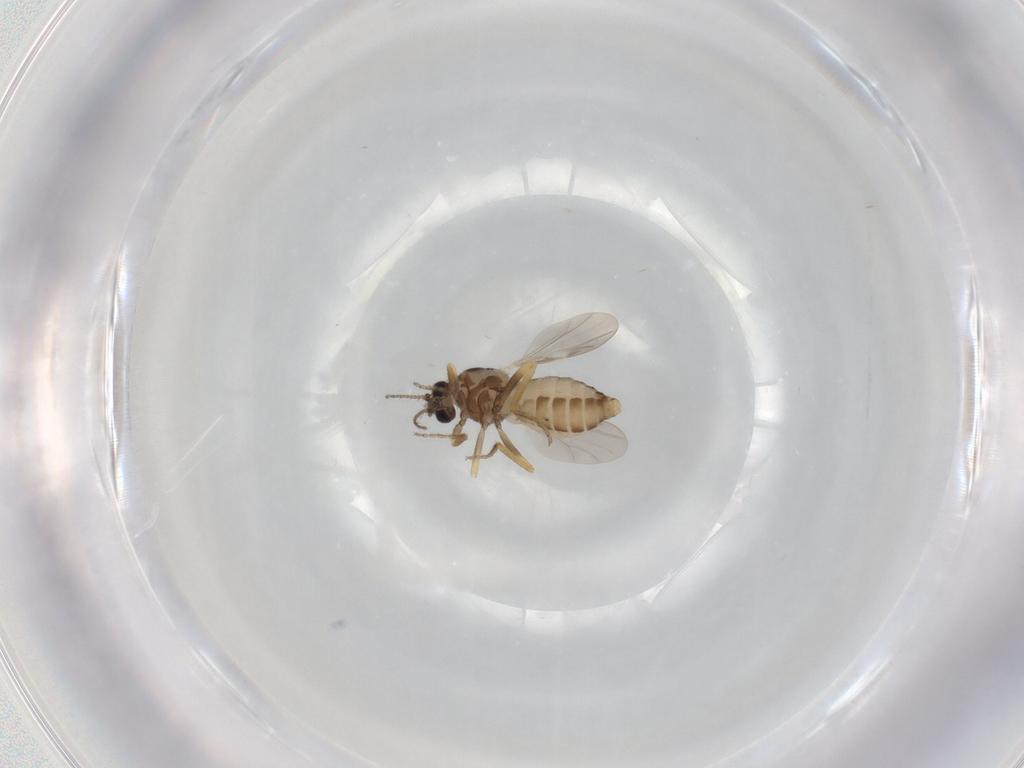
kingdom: Animalia
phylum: Arthropoda
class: Insecta
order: Diptera
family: Ceratopogonidae
